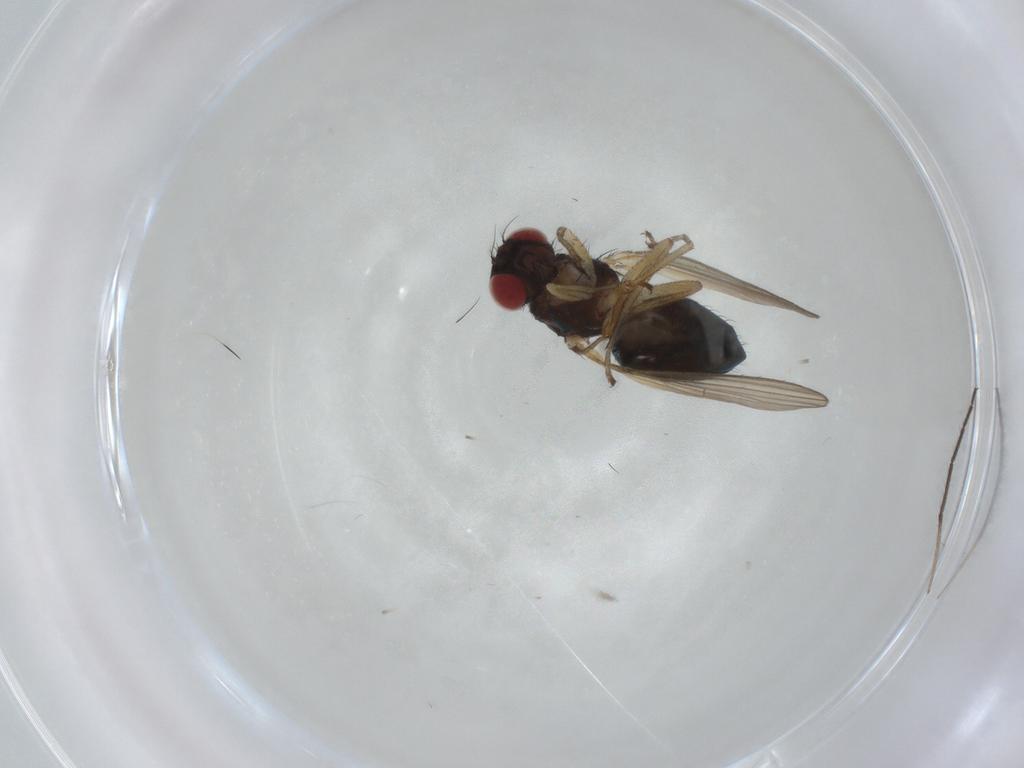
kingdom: Animalia
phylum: Arthropoda
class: Insecta
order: Diptera
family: Camillidae
